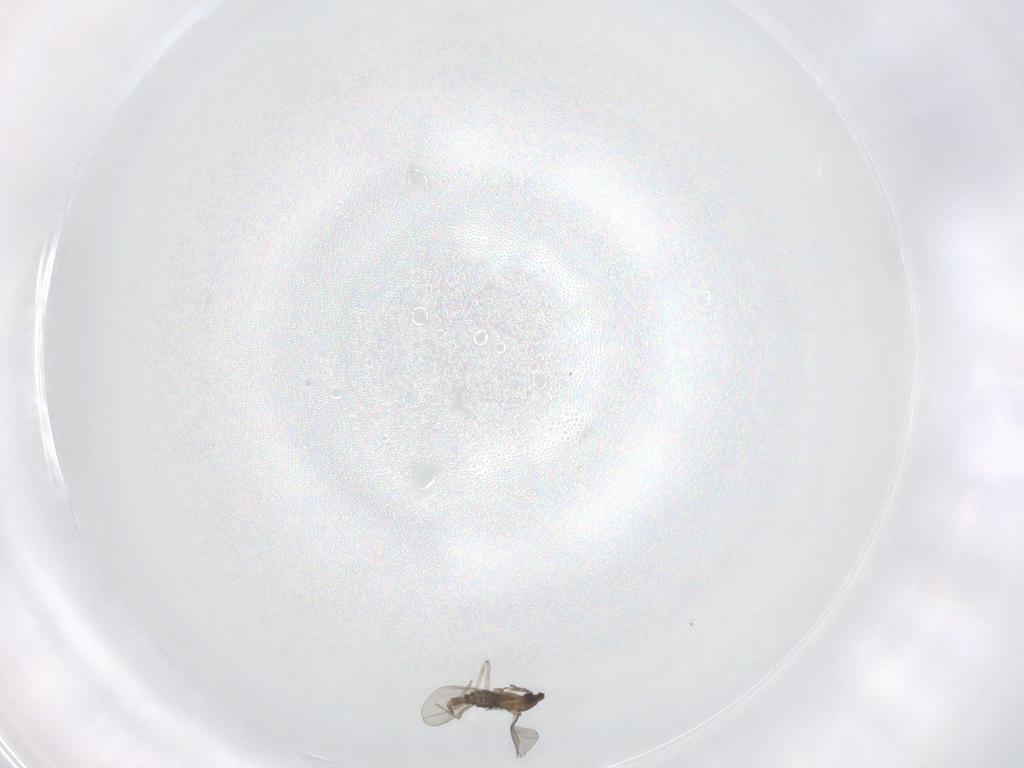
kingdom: Animalia
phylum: Arthropoda
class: Insecta
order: Diptera
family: Cecidomyiidae
